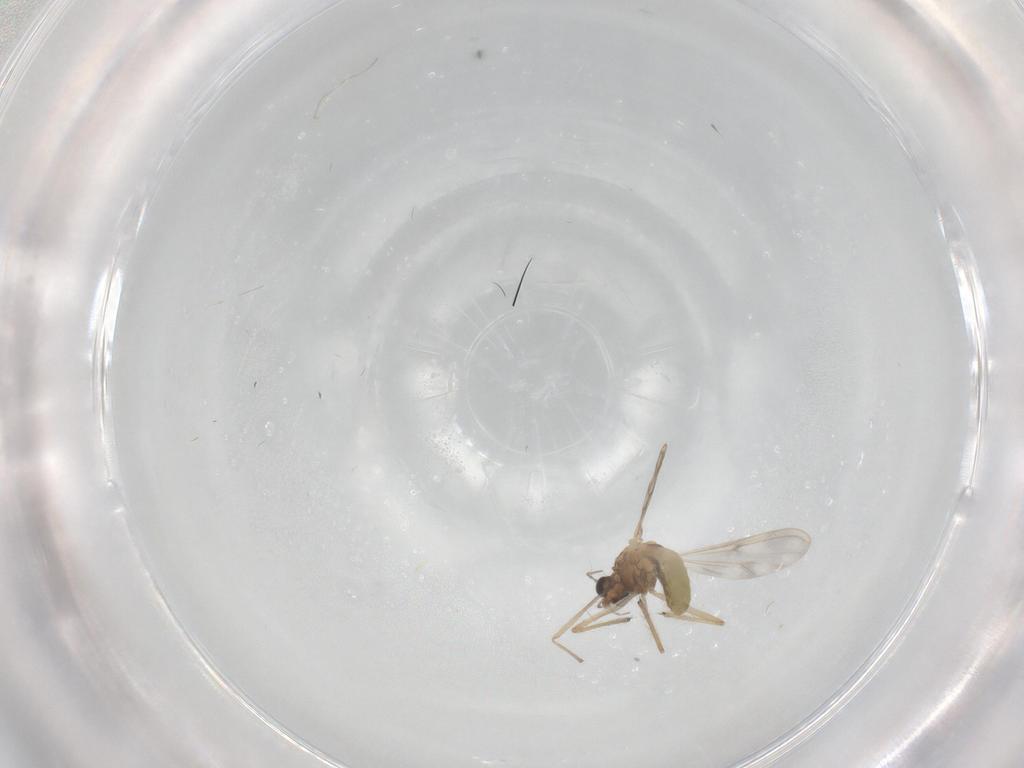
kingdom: Animalia
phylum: Arthropoda
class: Insecta
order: Diptera
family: Chironomidae
